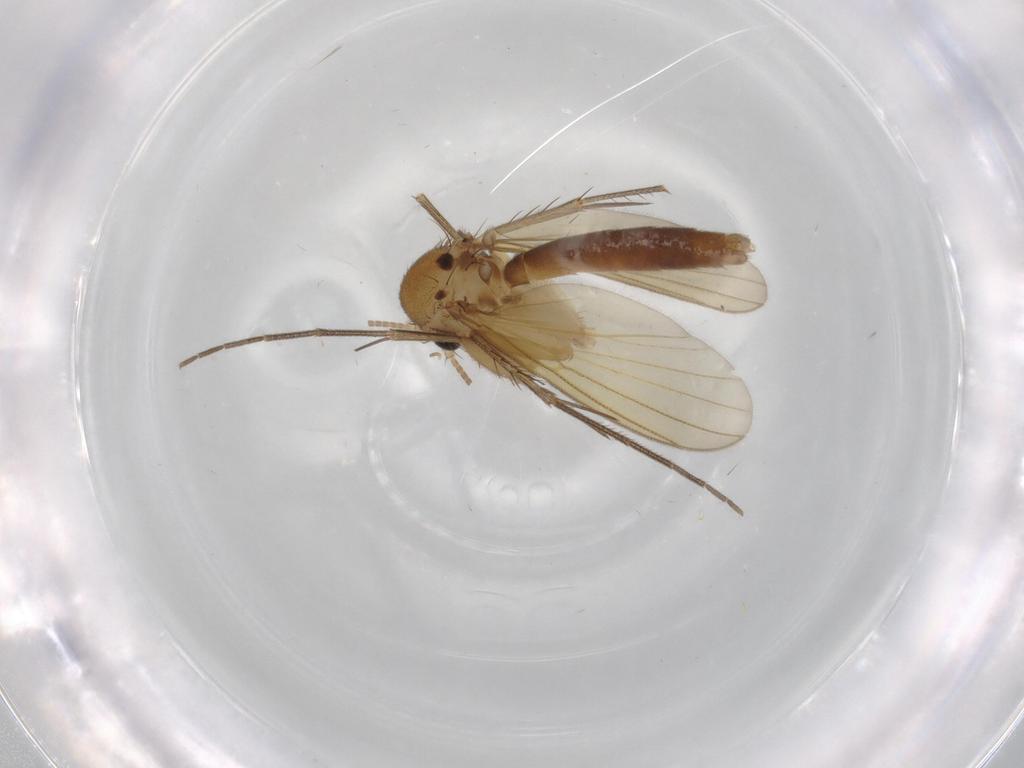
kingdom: Animalia
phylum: Arthropoda
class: Insecta
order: Diptera
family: Mycetophilidae
